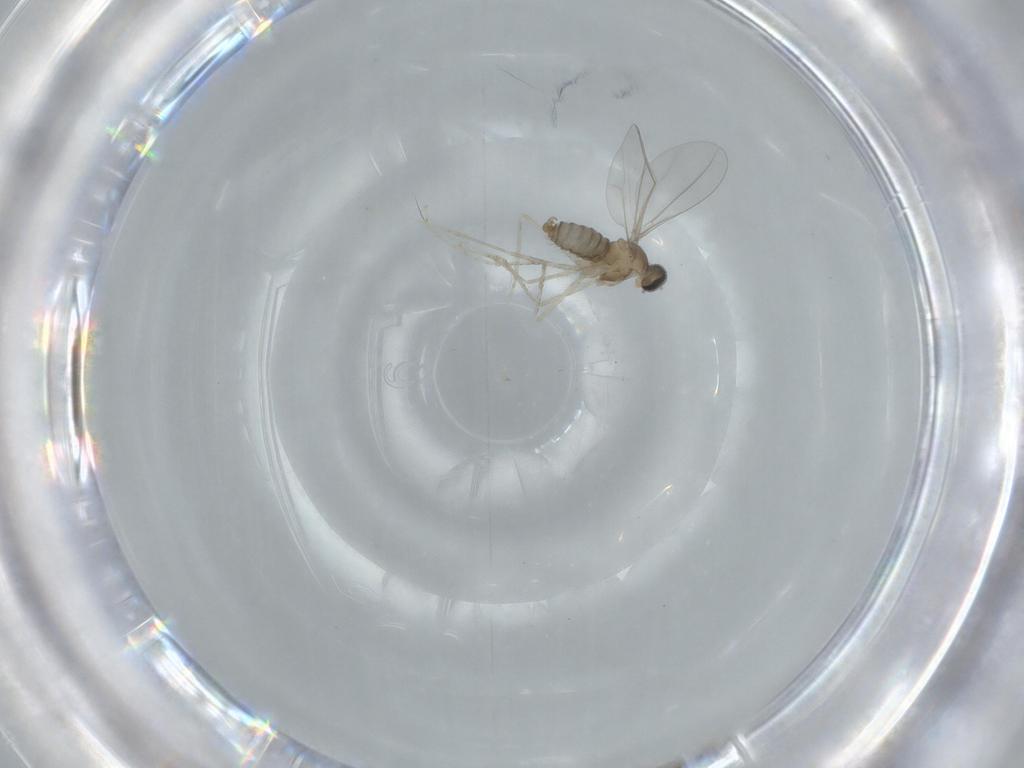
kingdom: Animalia
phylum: Arthropoda
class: Insecta
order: Diptera
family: Cecidomyiidae
